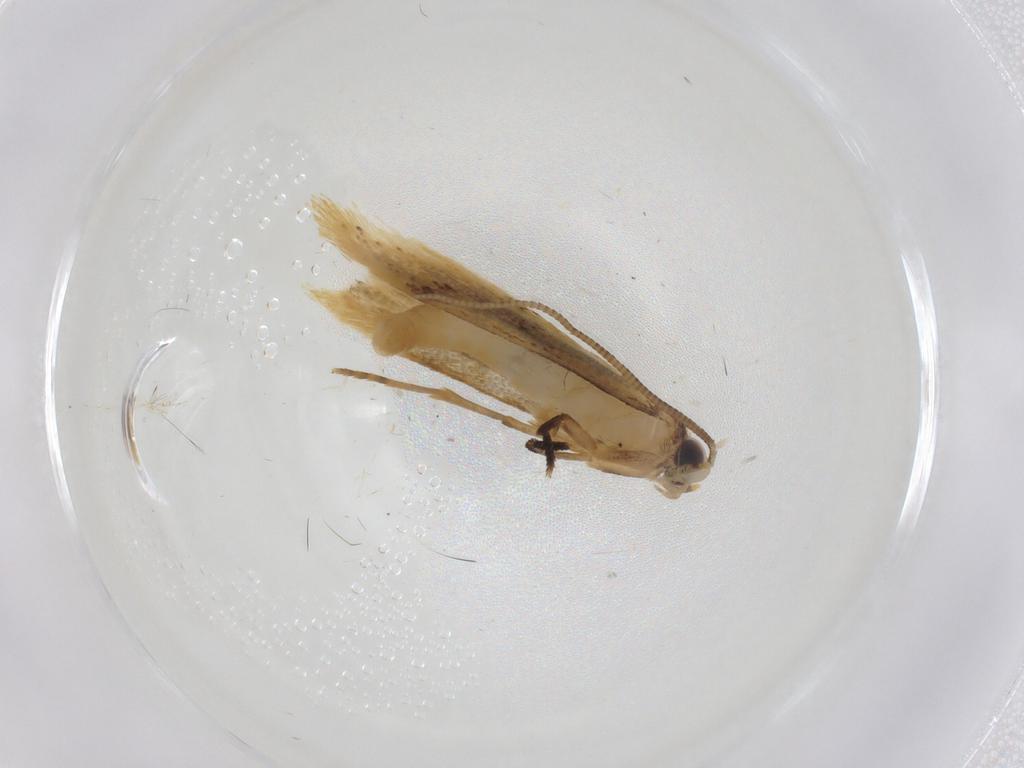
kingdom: Animalia
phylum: Arthropoda
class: Insecta
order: Lepidoptera
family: Tineidae
